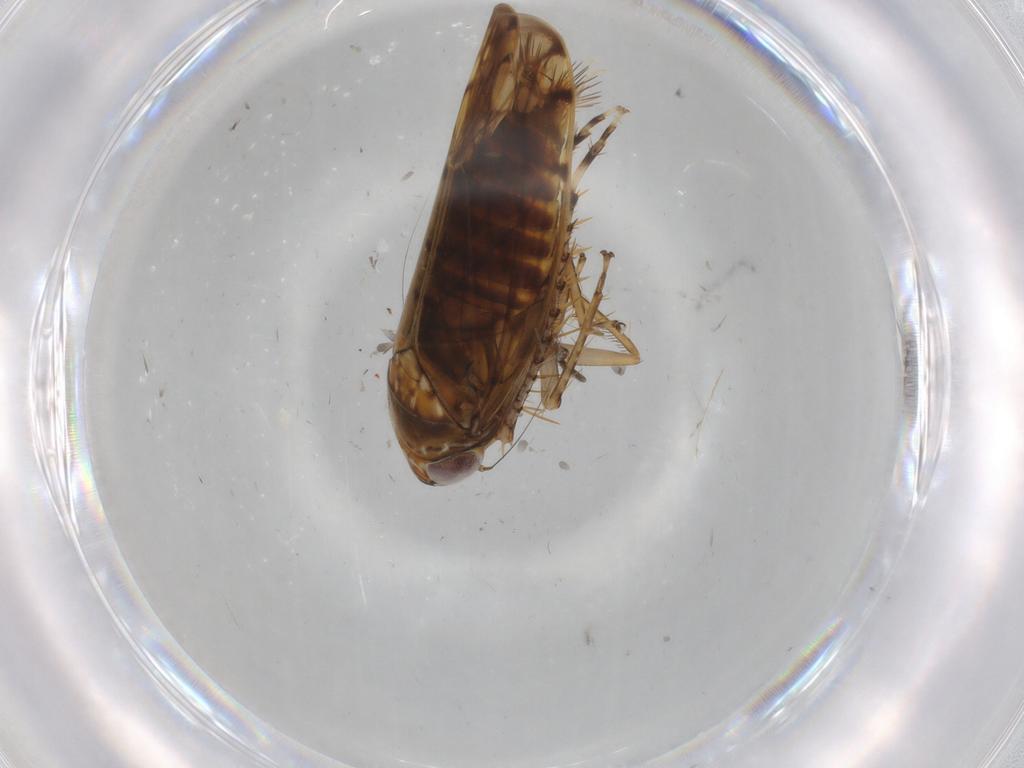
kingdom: Animalia
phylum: Arthropoda
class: Insecta
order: Hemiptera
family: Cicadellidae
